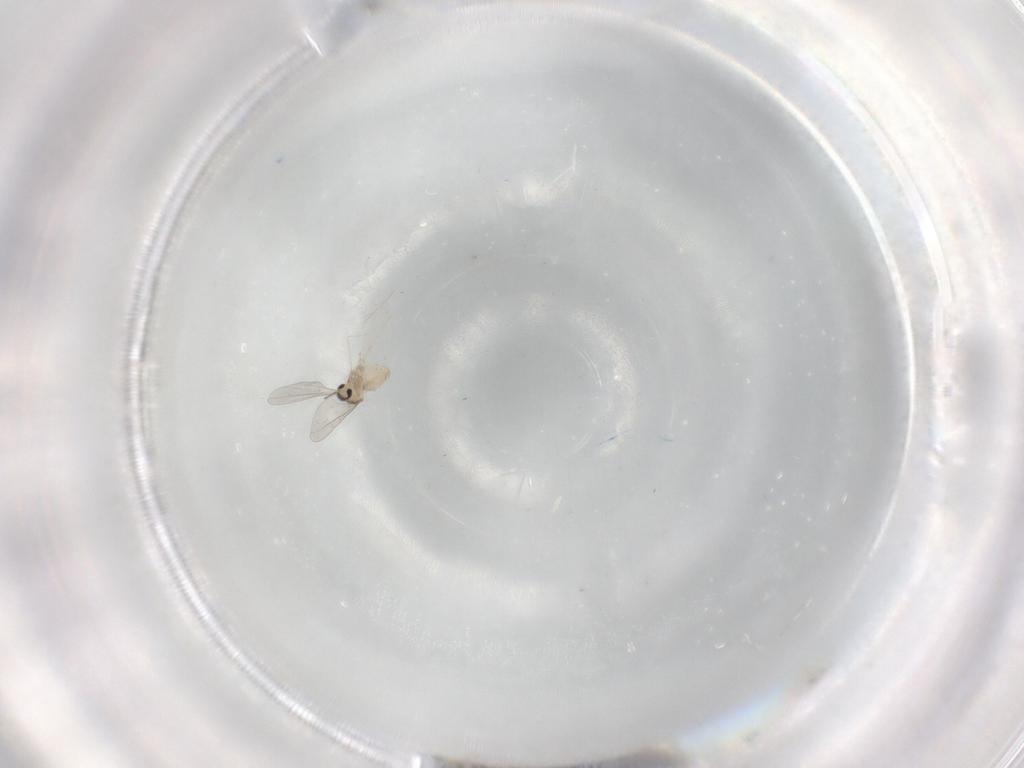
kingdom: Animalia
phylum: Arthropoda
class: Insecta
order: Diptera
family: Cecidomyiidae
